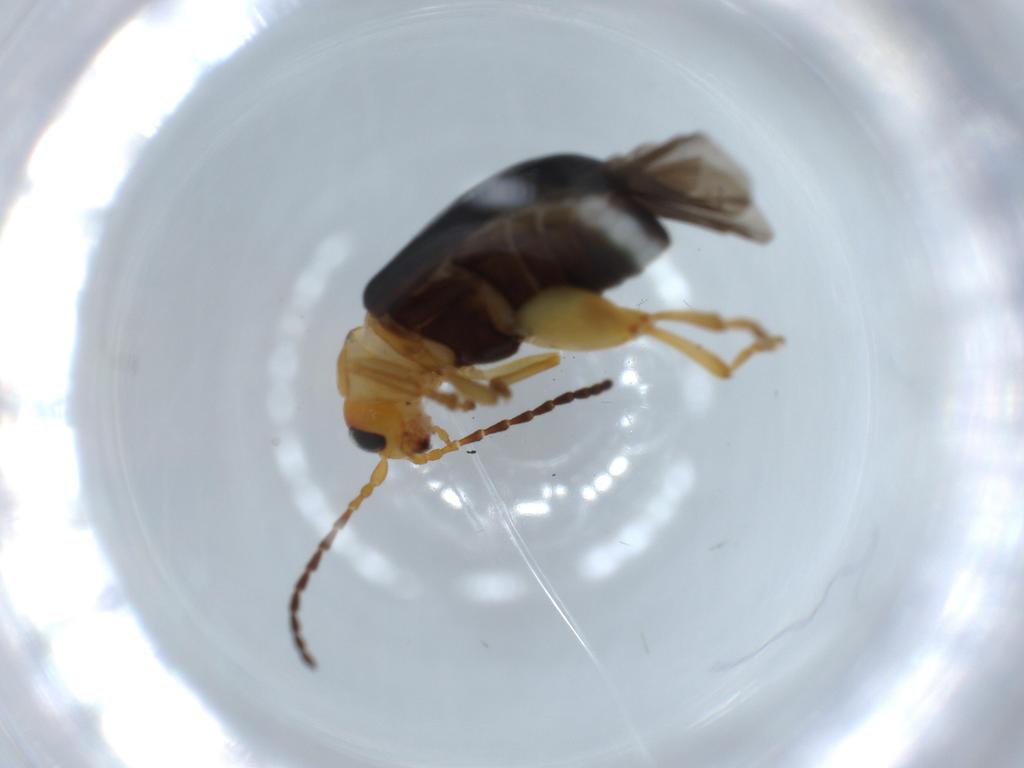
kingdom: Animalia
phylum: Arthropoda
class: Insecta
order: Coleoptera
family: Chrysomelidae
